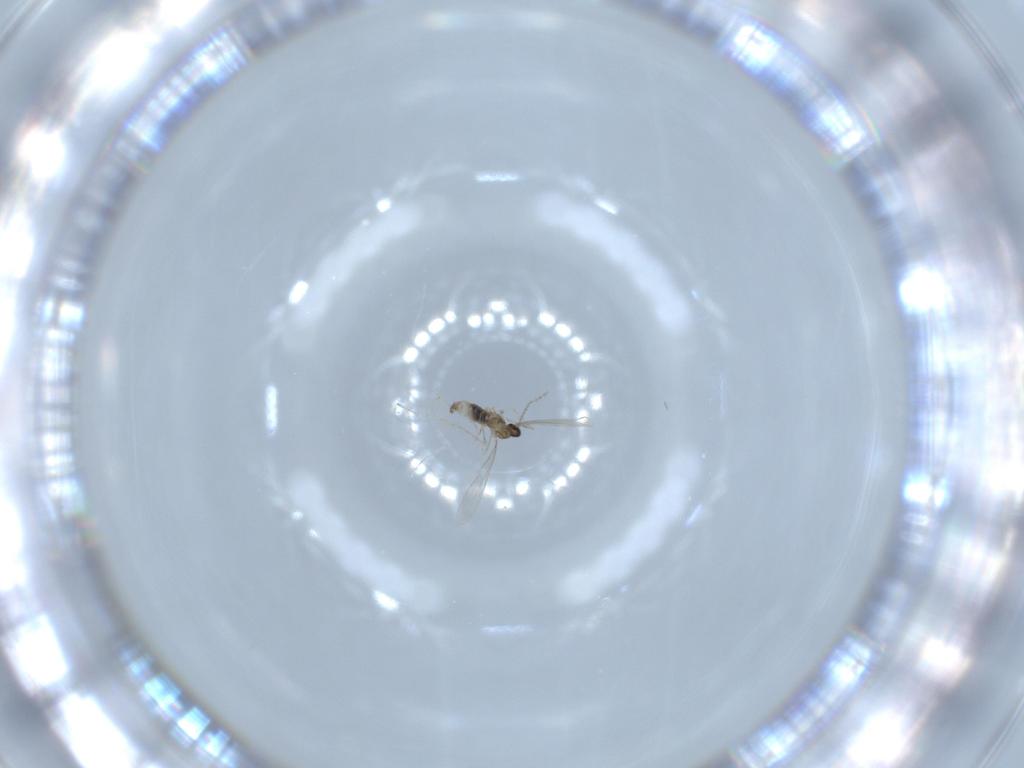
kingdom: Animalia
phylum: Arthropoda
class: Insecta
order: Diptera
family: Cecidomyiidae
